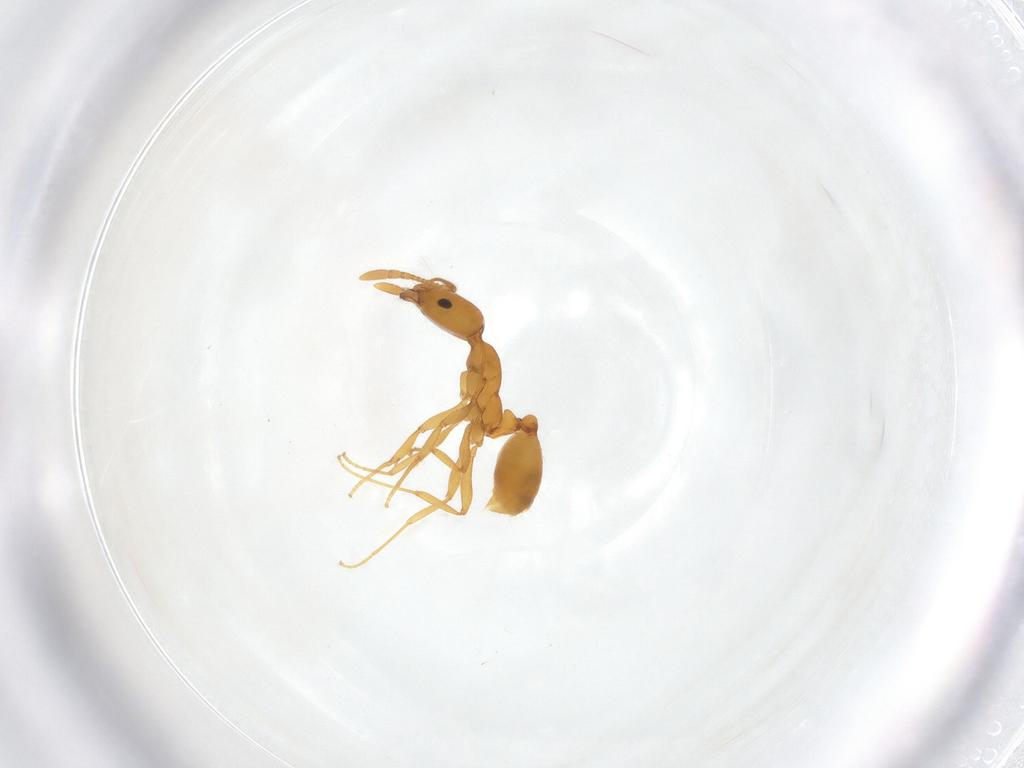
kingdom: Animalia
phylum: Arthropoda
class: Insecta
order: Hymenoptera
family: Formicidae
